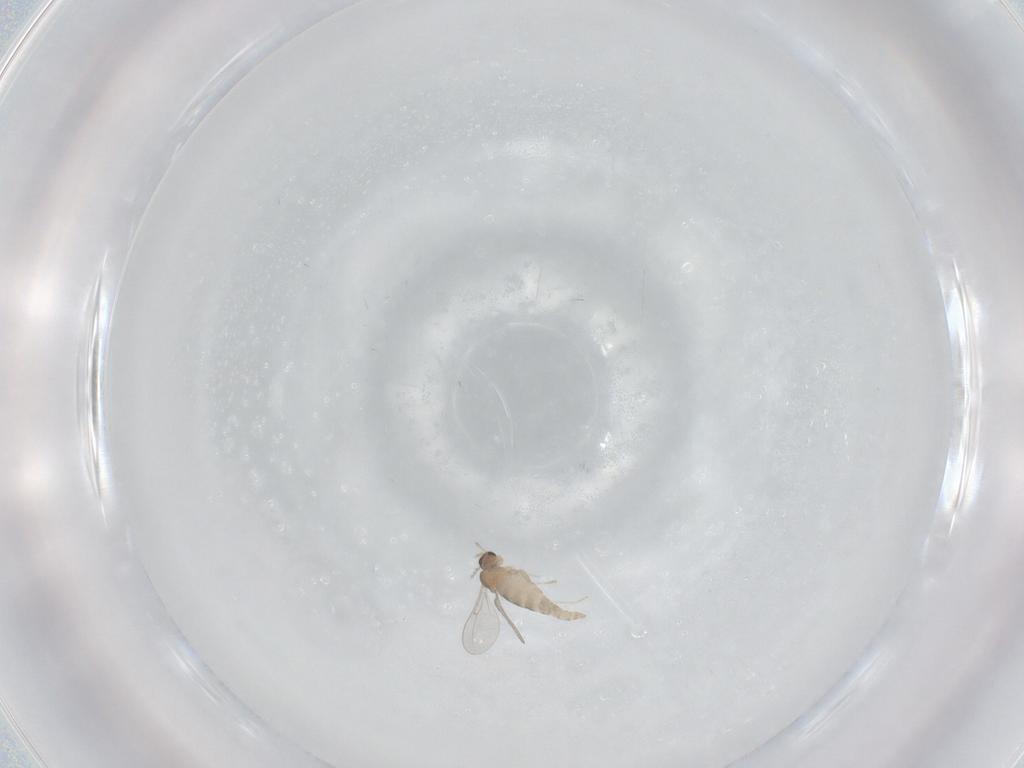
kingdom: Animalia
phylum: Arthropoda
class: Insecta
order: Diptera
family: Cecidomyiidae
